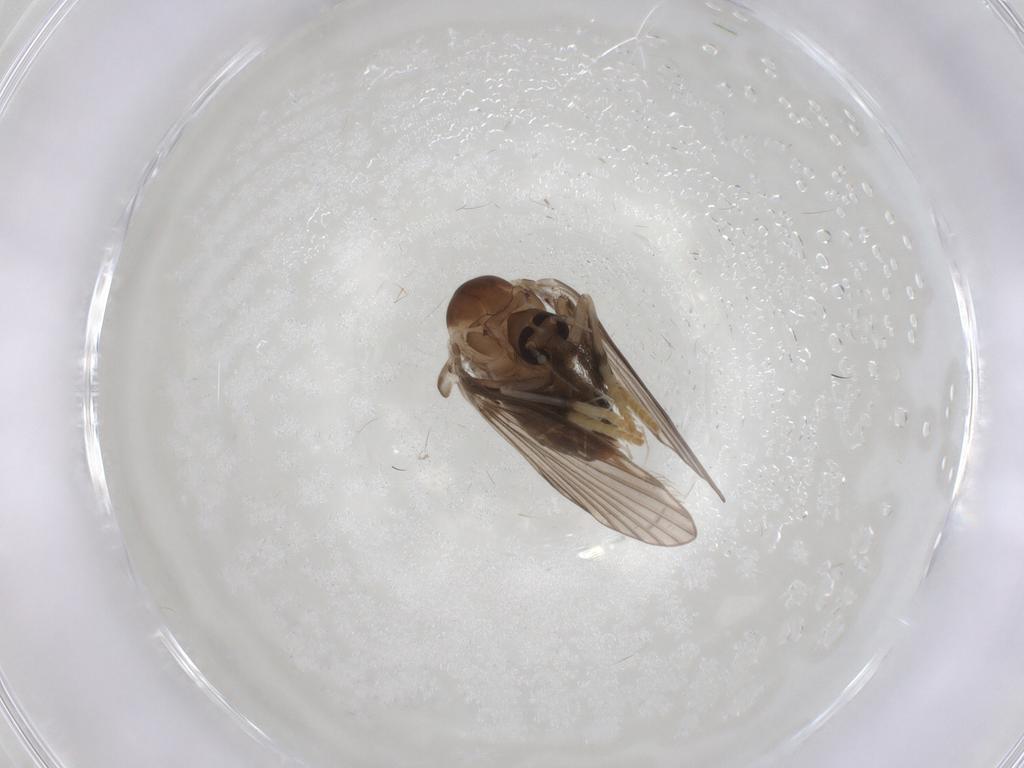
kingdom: Animalia
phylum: Arthropoda
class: Insecta
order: Diptera
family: Psychodidae
